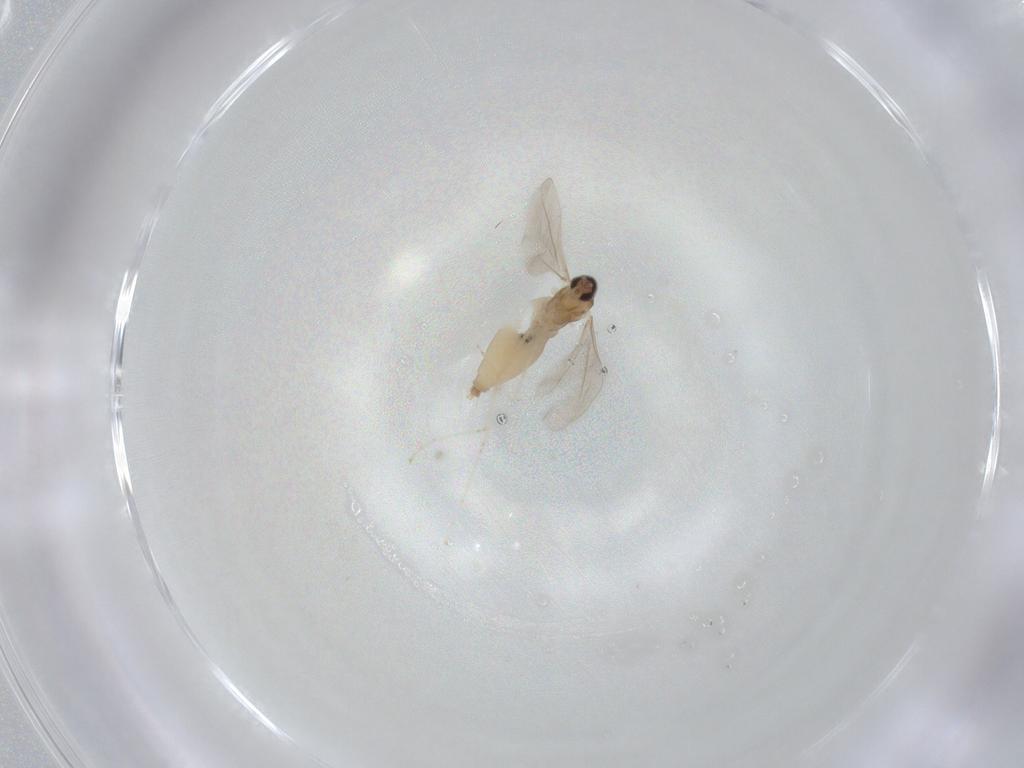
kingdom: Animalia
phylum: Arthropoda
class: Insecta
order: Diptera
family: Cecidomyiidae
